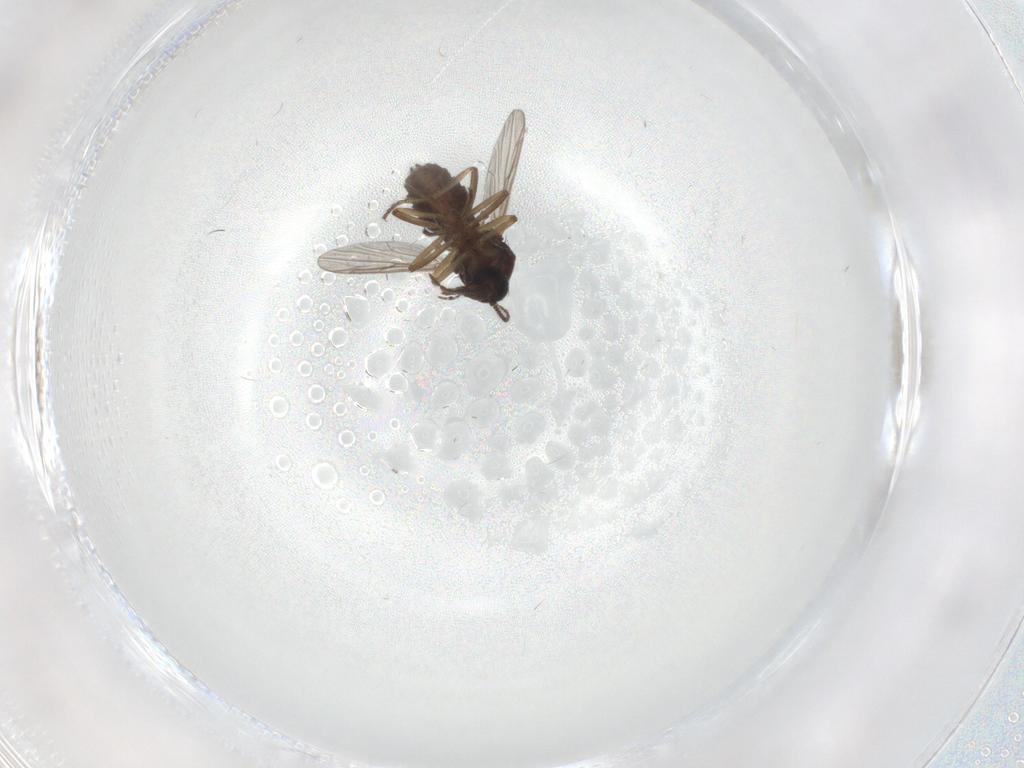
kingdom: Animalia
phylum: Arthropoda
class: Insecta
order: Diptera
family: Ceratopogonidae
